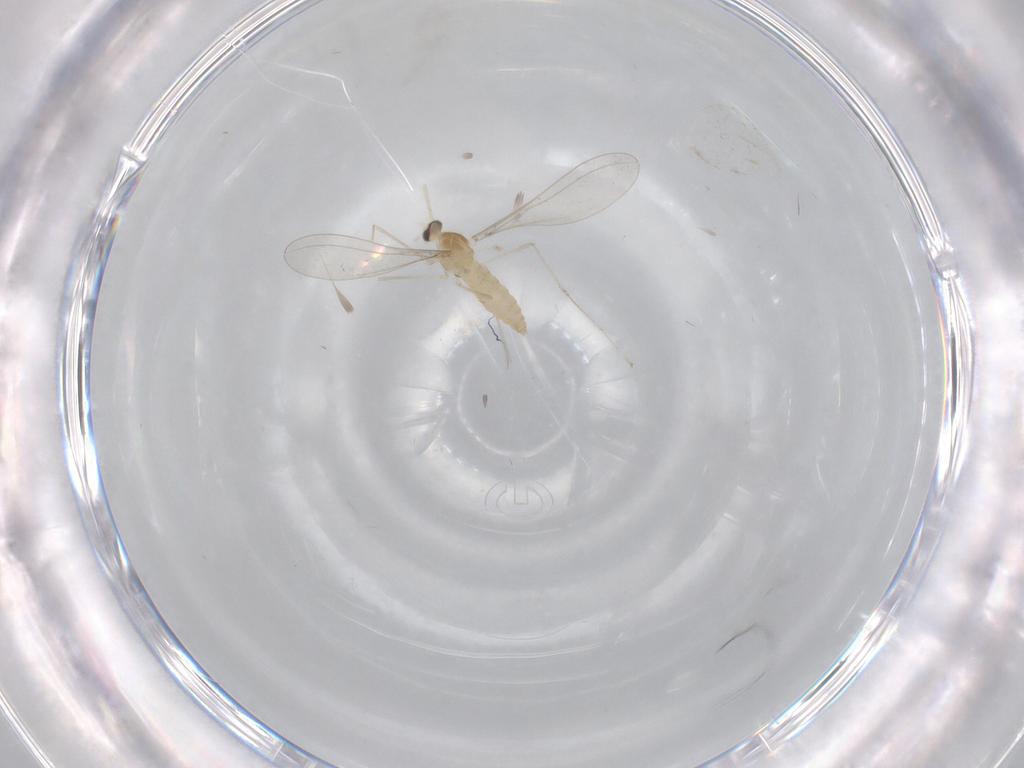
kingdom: Animalia
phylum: Arthropoda
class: Insecta
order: Diptera
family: Cecidomyiidae
